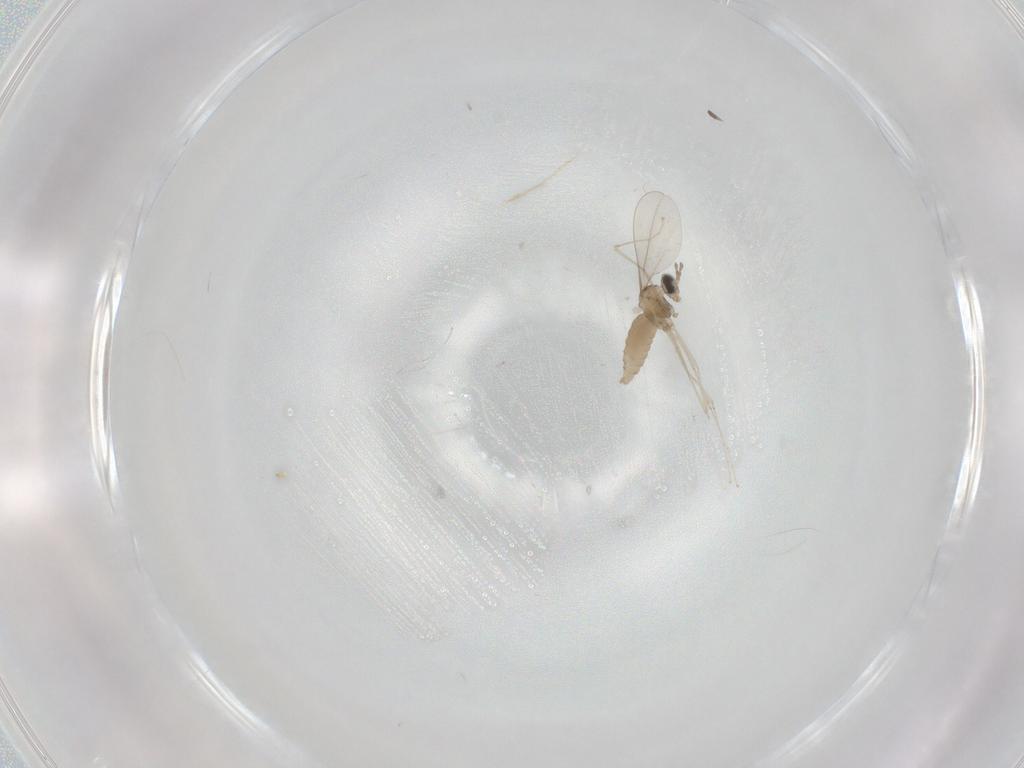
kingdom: Animalia
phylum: Arthropoda
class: Insecta
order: Diptera
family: Cecidomyiidae
